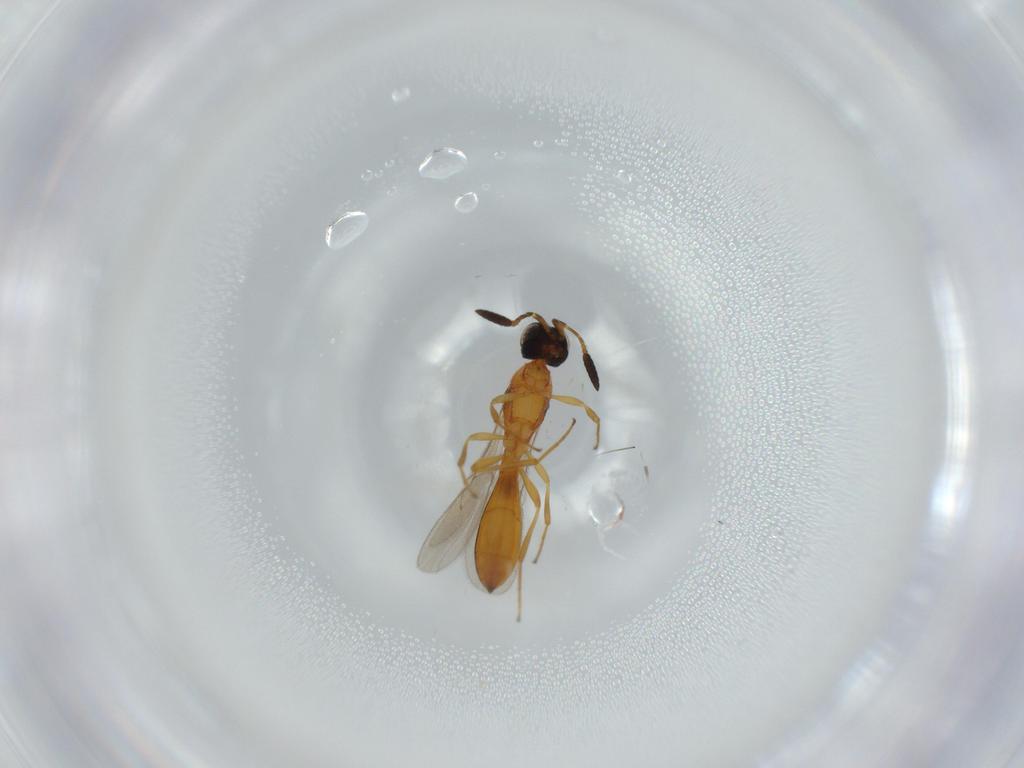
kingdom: Animalia
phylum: Arthropoda
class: Insecta
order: Hymenoptera
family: Scelionidae
